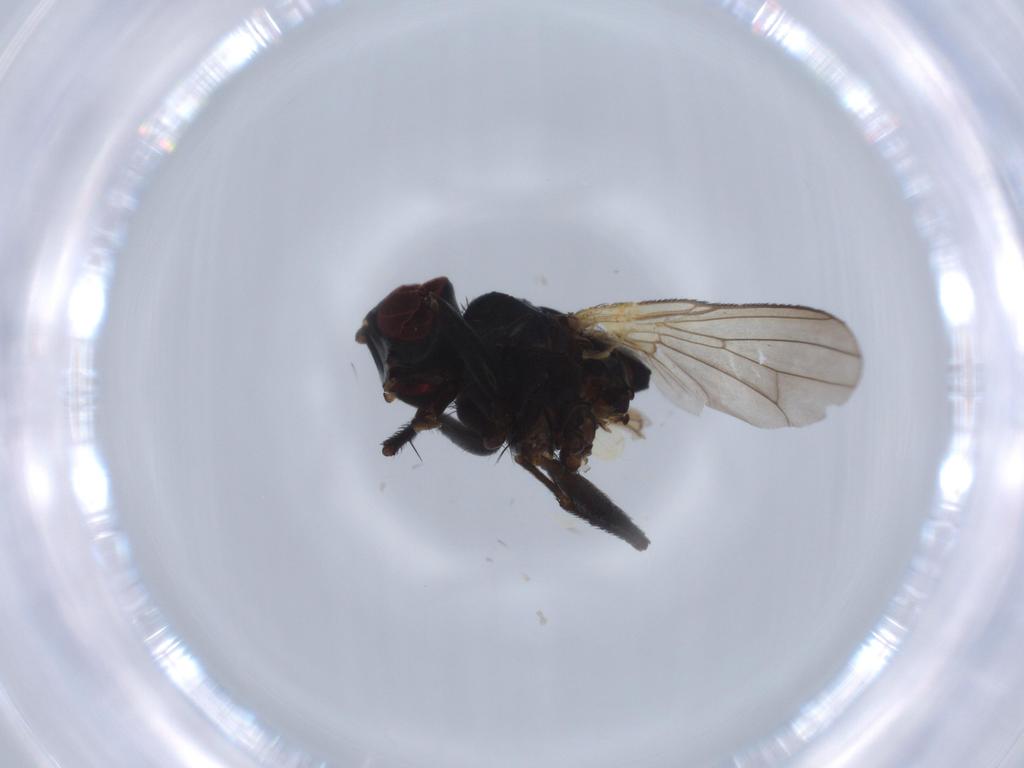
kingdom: Animalia
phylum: Arthropoda
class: Insecta
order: Diptera
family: Muscidae
